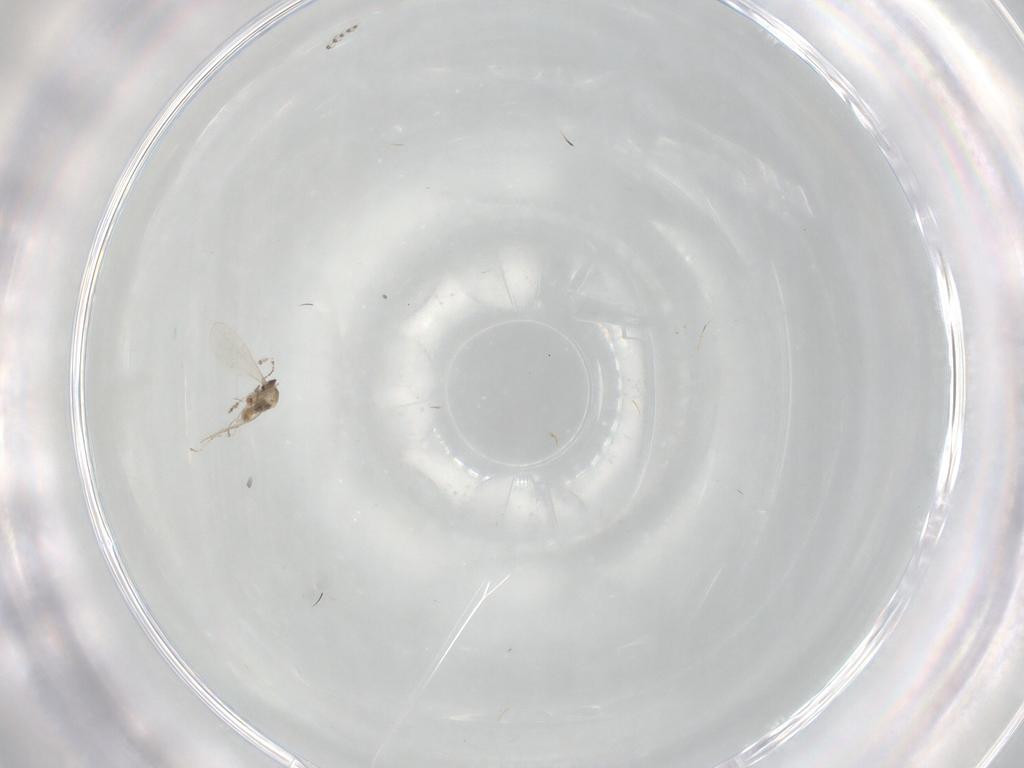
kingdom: Animalia
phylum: Arthropoda
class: Insecta
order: Diptera
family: Cecidomyiidae
